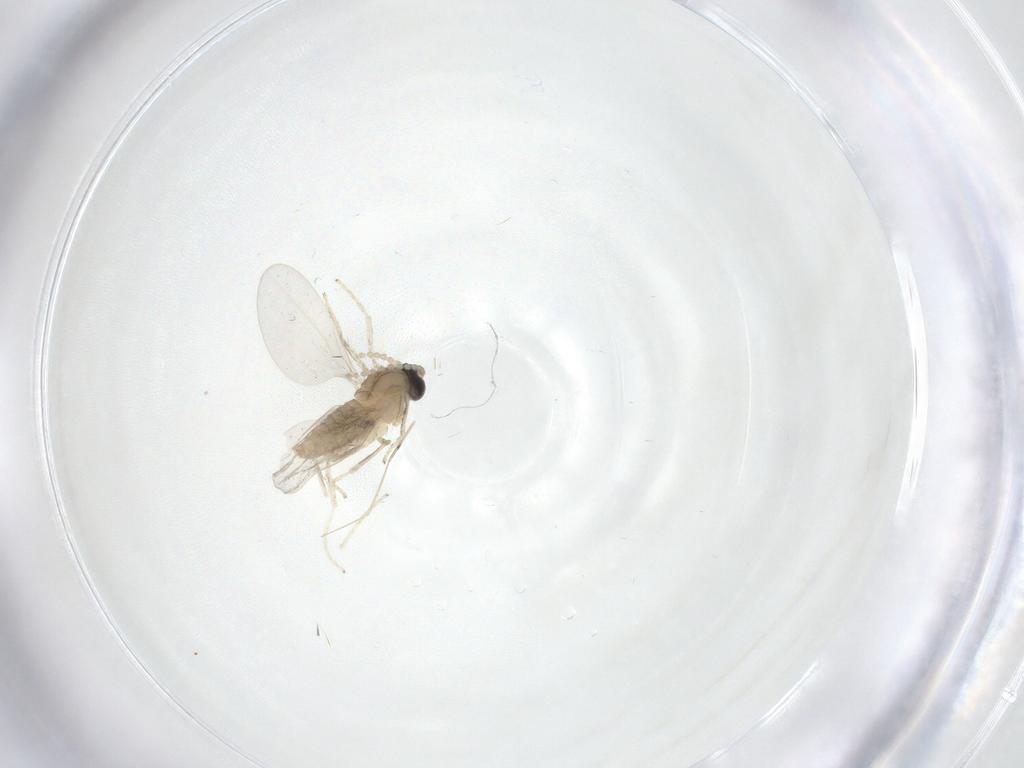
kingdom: Animalia
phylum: Arthropoda
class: Insecta
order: Diptera
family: Cecidomyiidae
